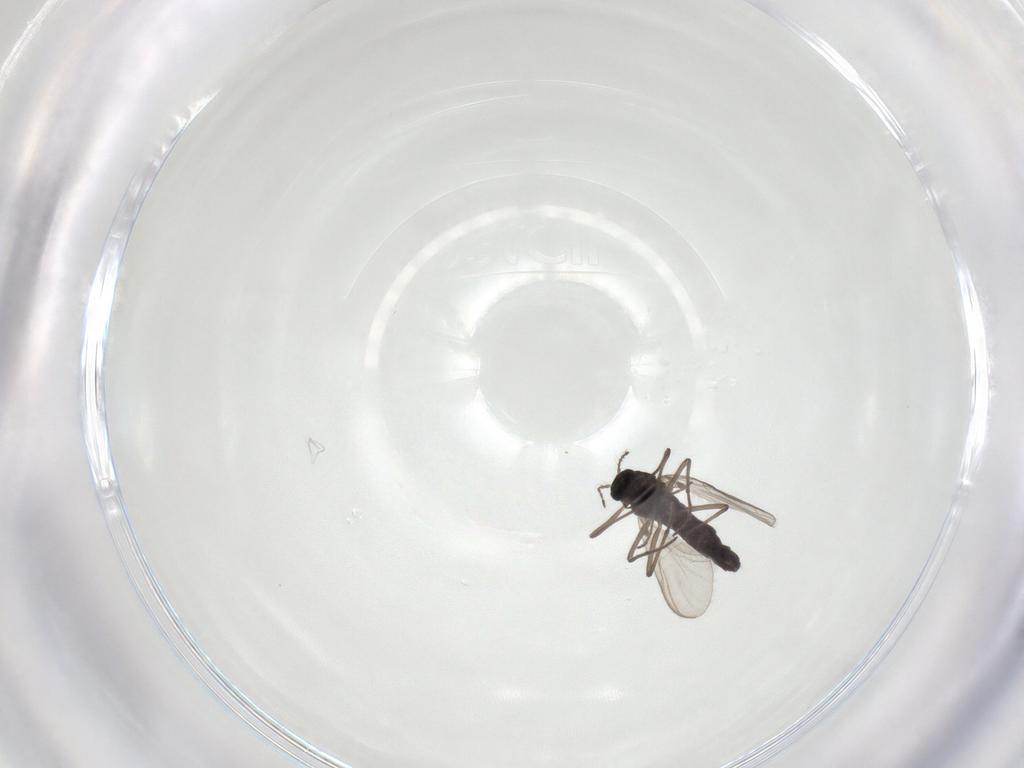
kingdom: Animalia
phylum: Arthropoda
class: Insecta
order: Diptera
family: Chironomidae
